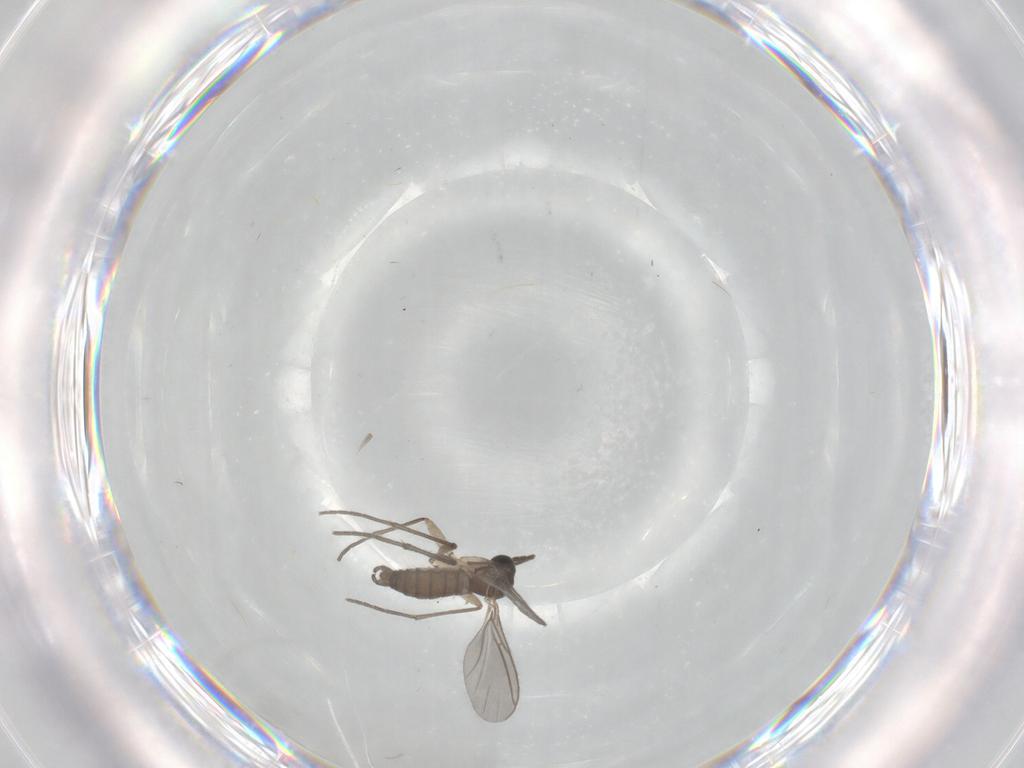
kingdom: Animalia
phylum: Arthropoda
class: Insecta
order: Diptera
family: Sciaridae
